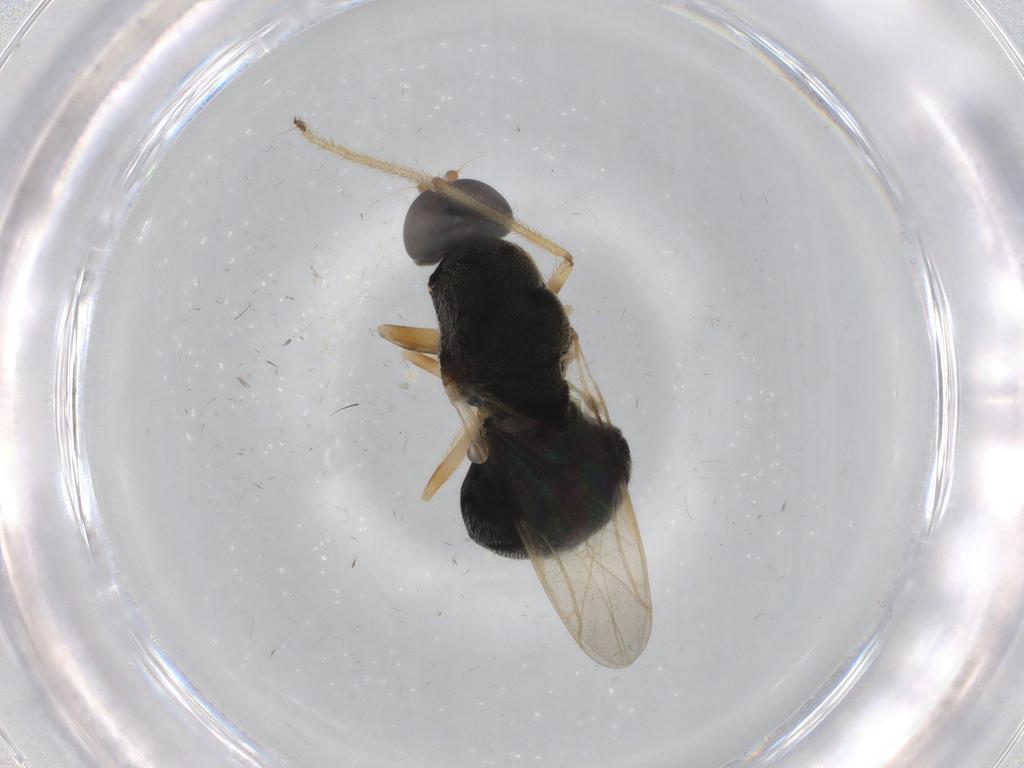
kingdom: Animalia
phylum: Arthropoda
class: Insecta
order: Diptera
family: Stratiomyidae
